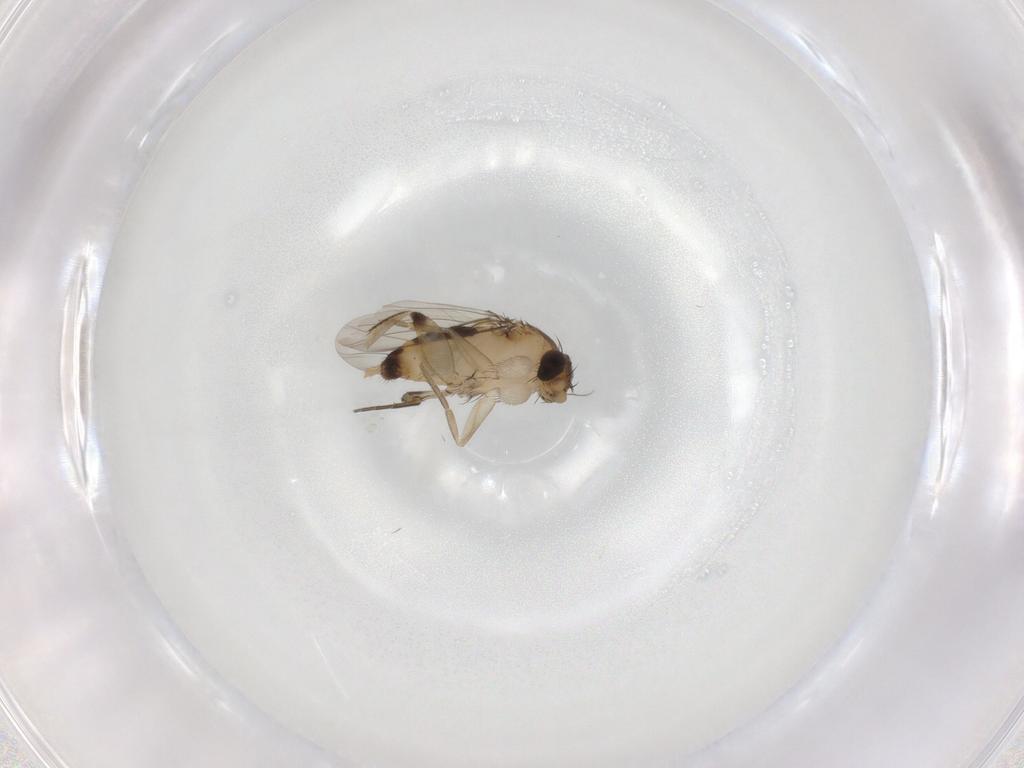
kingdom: Animalia
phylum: Arthropoda
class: Insecta
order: Diptera
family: Phoridae
